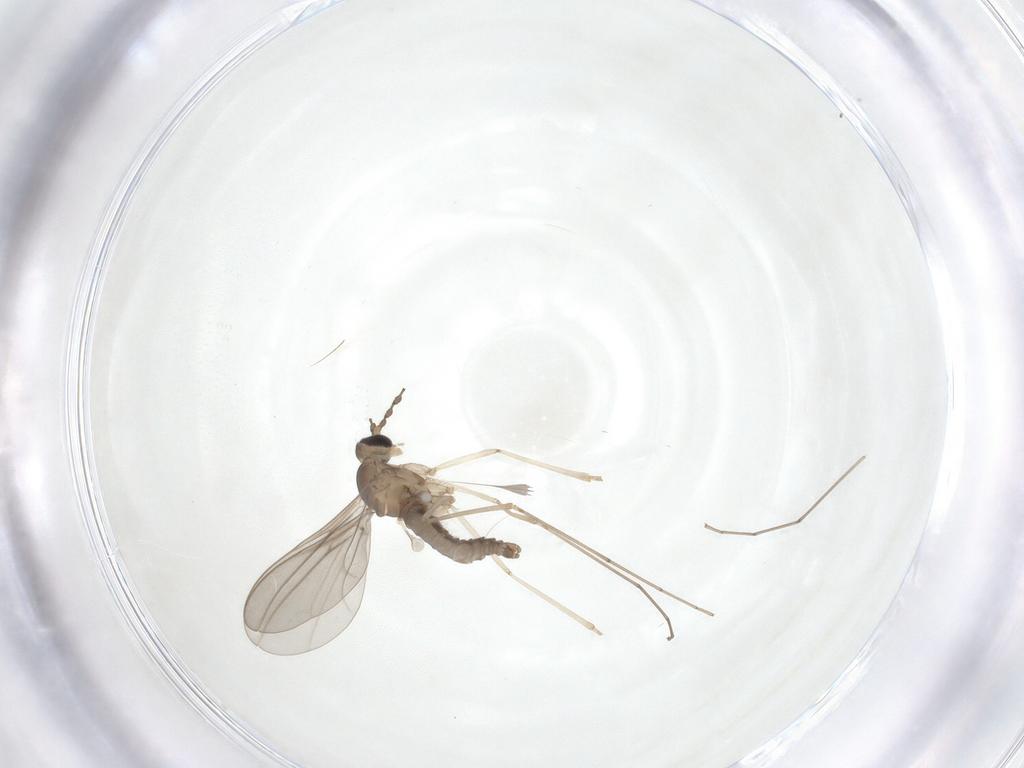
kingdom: Animalia
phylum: Arthropoda
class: Insecta
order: Diptera
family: Cecidomyiidae
